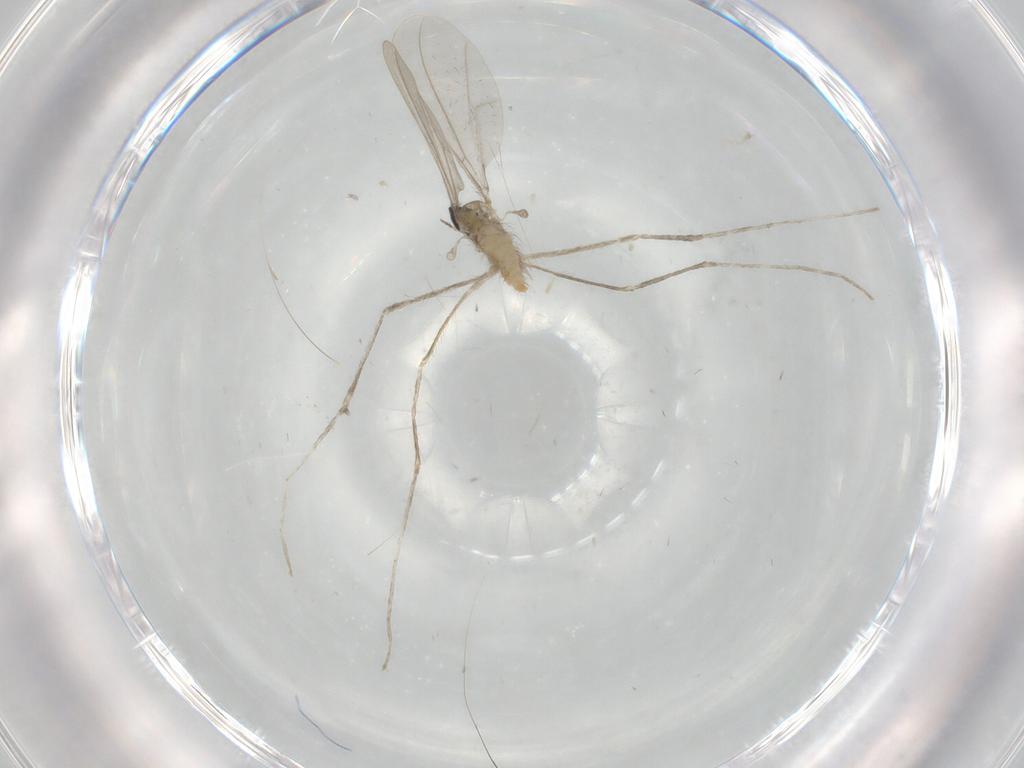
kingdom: Animalia
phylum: Arthropoda
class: Insecta
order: Diptera
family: Cecidomyiidae
